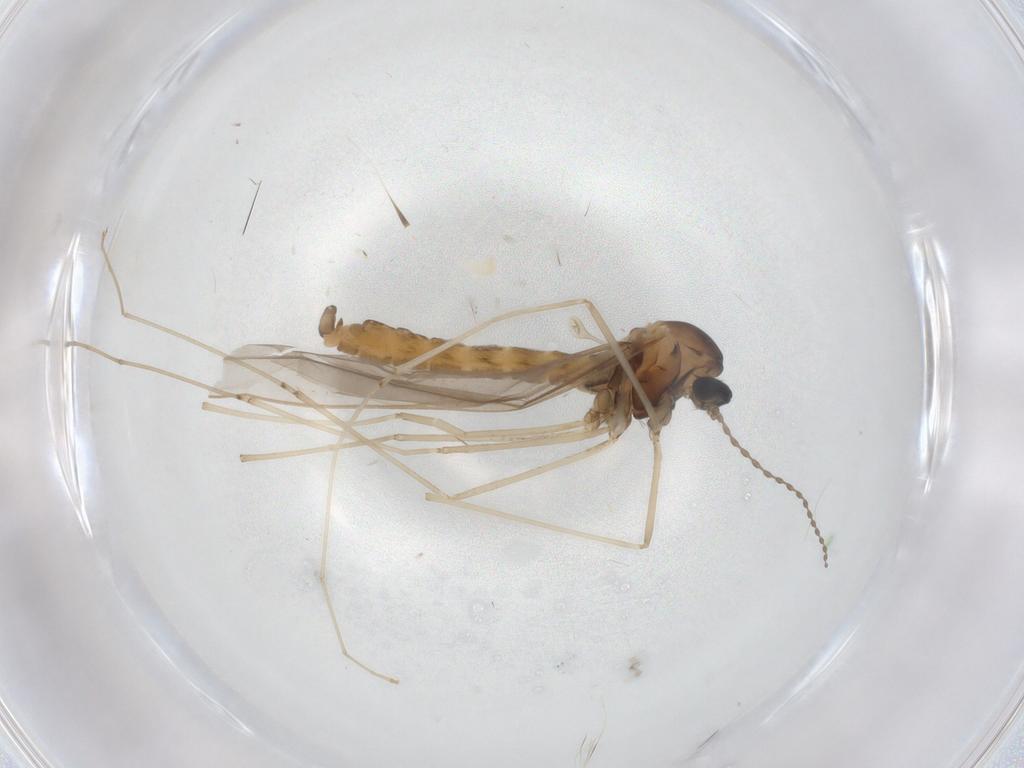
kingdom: Animalia
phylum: Arthropoda
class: Insecta
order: Diptera
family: Cecidomyiidae
